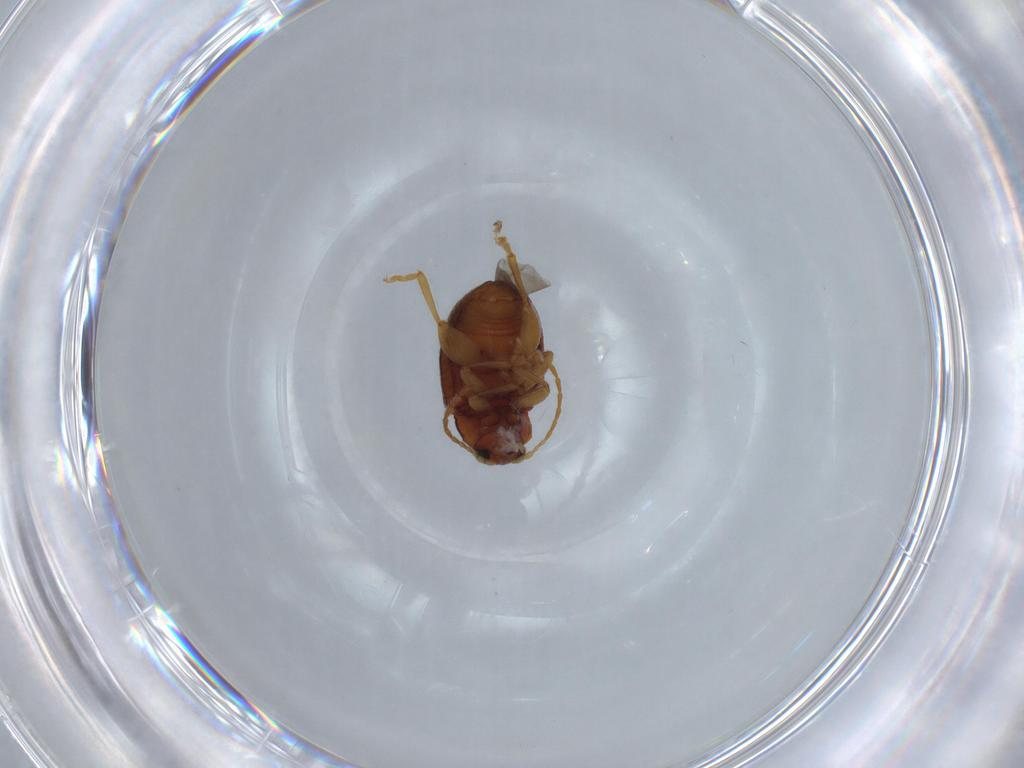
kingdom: Animalia
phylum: Arthropoda
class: Insecta
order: Coleoptera
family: Chrysomelidae
